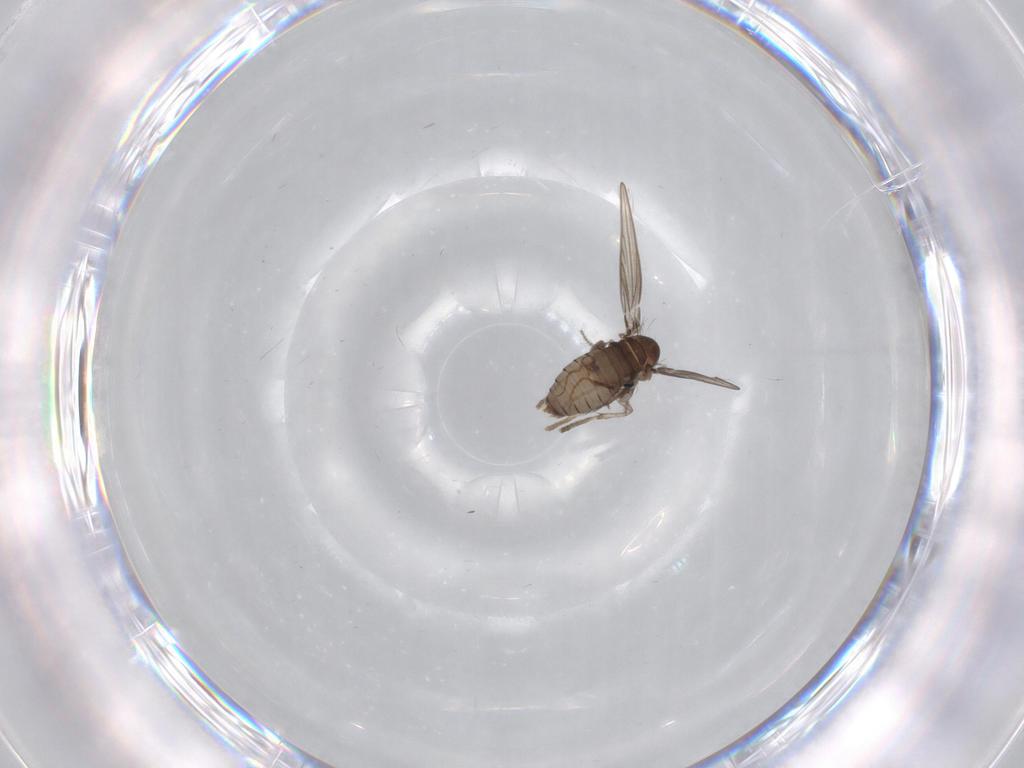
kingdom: Animalia
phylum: Arthropoda
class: Insecta
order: Diptera
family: Psychodidae
